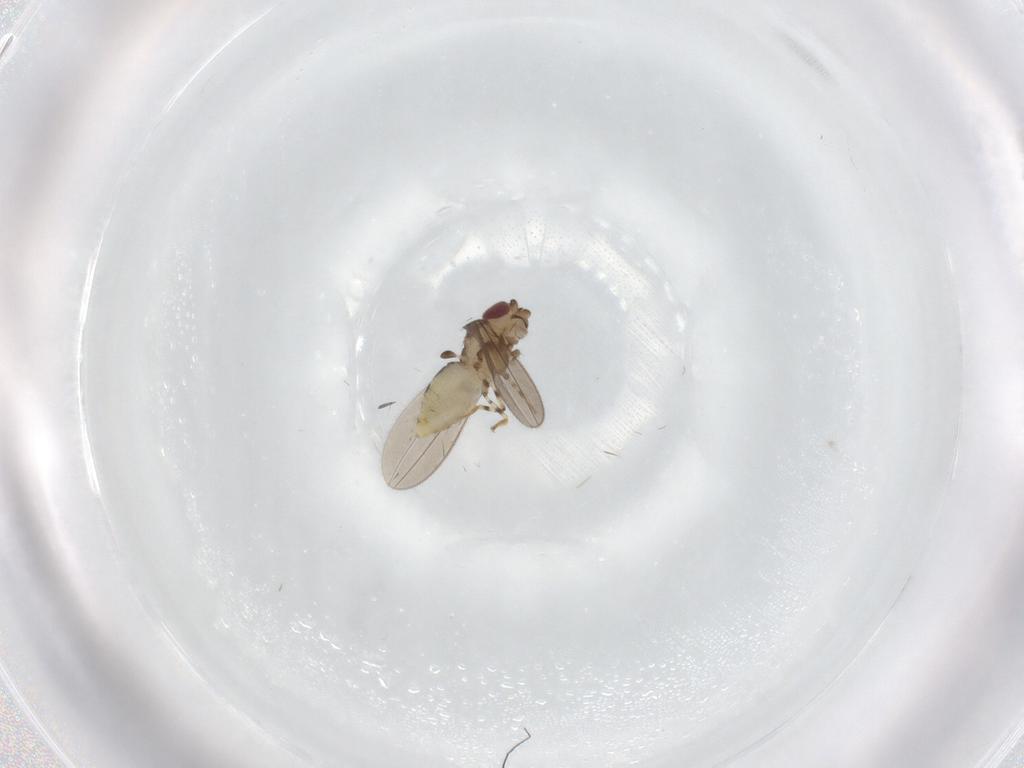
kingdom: Animalia
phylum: Arthropoda
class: Insecta
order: Diptera
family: Asteiidae
